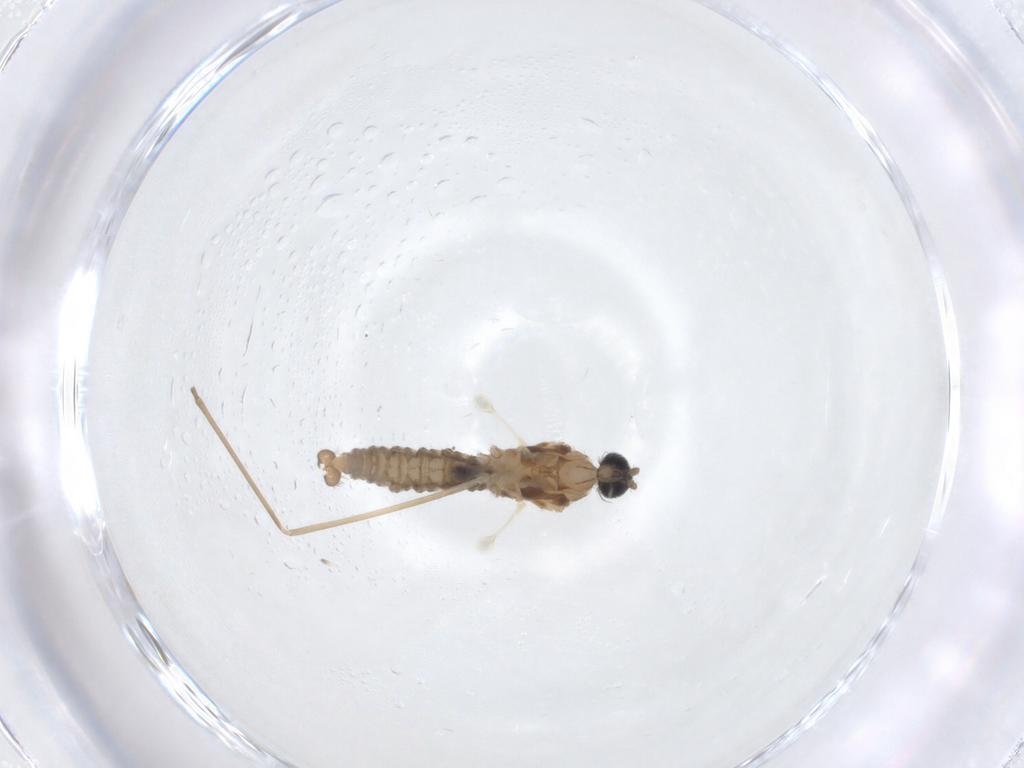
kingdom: Animalia
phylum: Arthropoda
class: Insecta
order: Diptera
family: Cecidomyiidae
